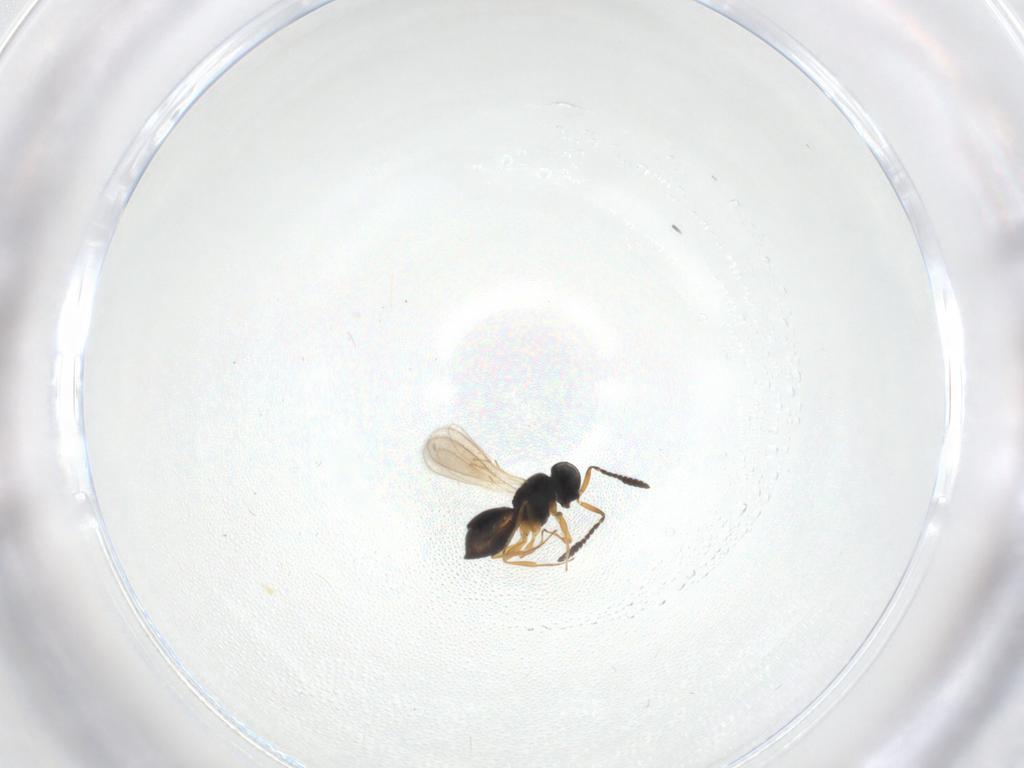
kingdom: Animalia
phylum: Arthropoda
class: Insecta
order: Hymenoptera
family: Scelionidae
